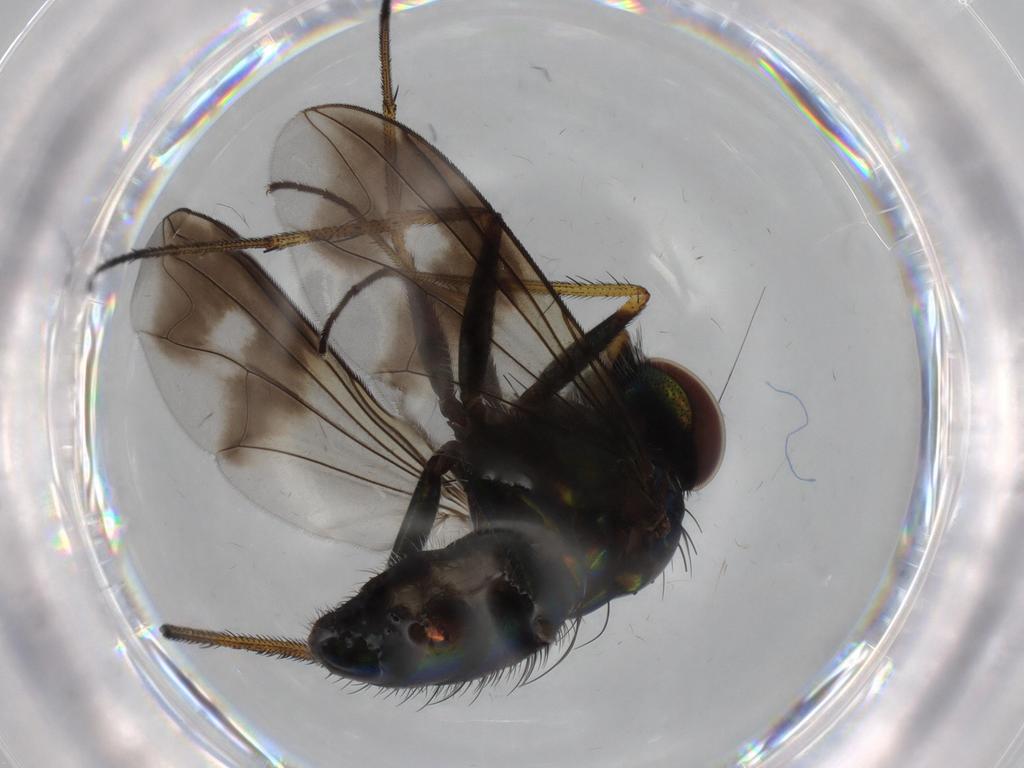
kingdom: Animalia
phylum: Arthropoda
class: Insecta
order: Diptera
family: Dolichopodidae
